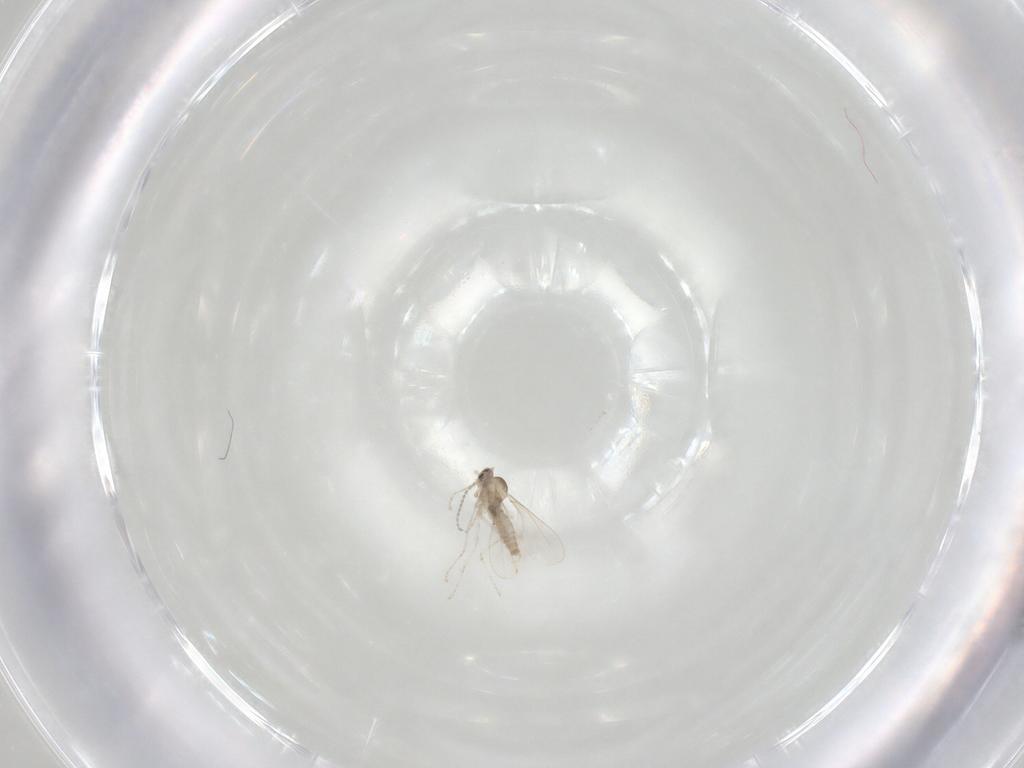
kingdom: Animalia
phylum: Arthropoda
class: Insecta
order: Diptera
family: Cecidomyiidae
